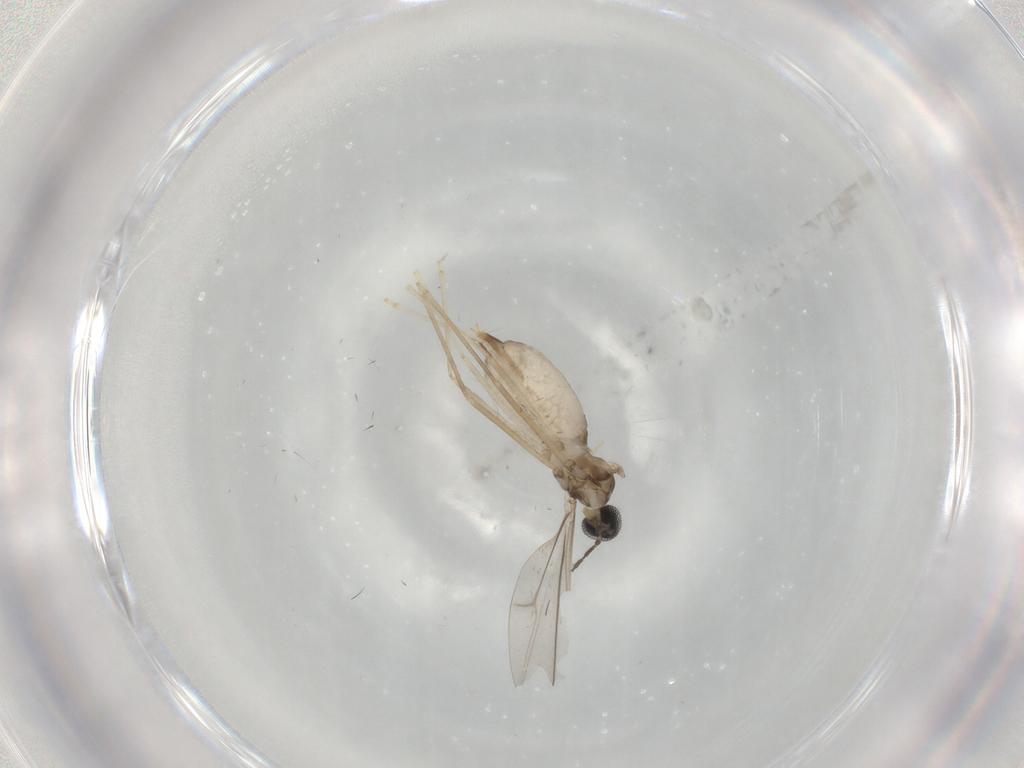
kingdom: Animalia
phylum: Arthropoda
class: Insecta
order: Diptera
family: Cecidomyiidae
